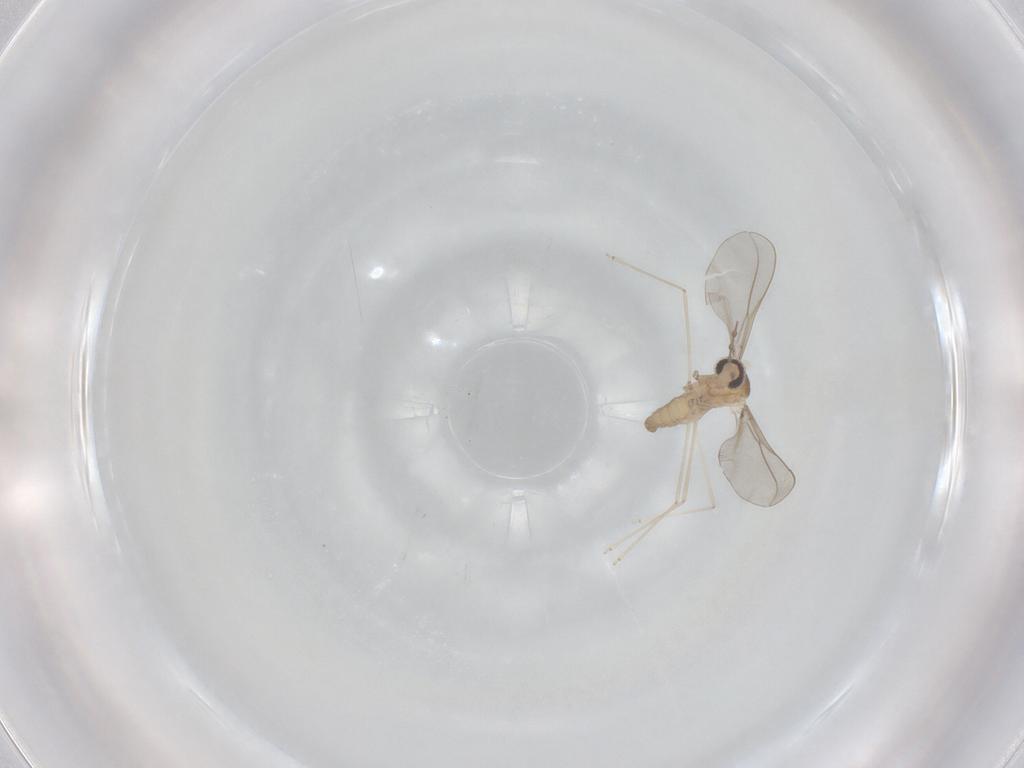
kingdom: Animalia
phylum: Arthropoda
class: Insecta
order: Diptera
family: Cecidomyiidae
